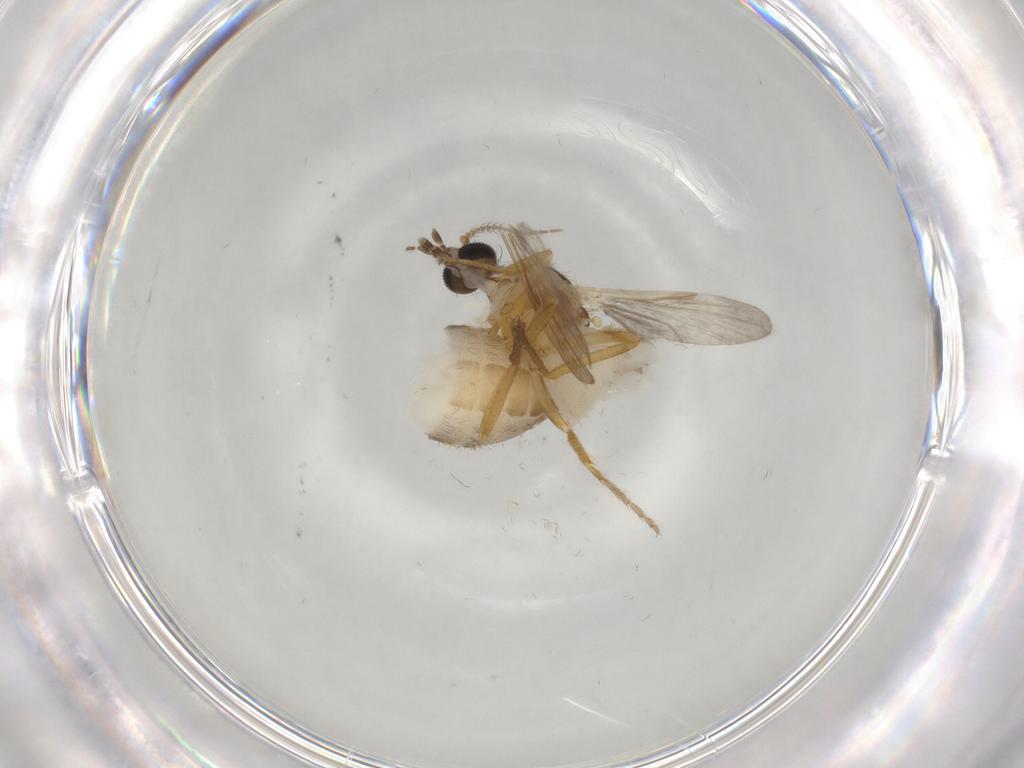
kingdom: Animalia
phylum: Arthropoda
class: Insecta
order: Diptera
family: Ceratopogonidae
